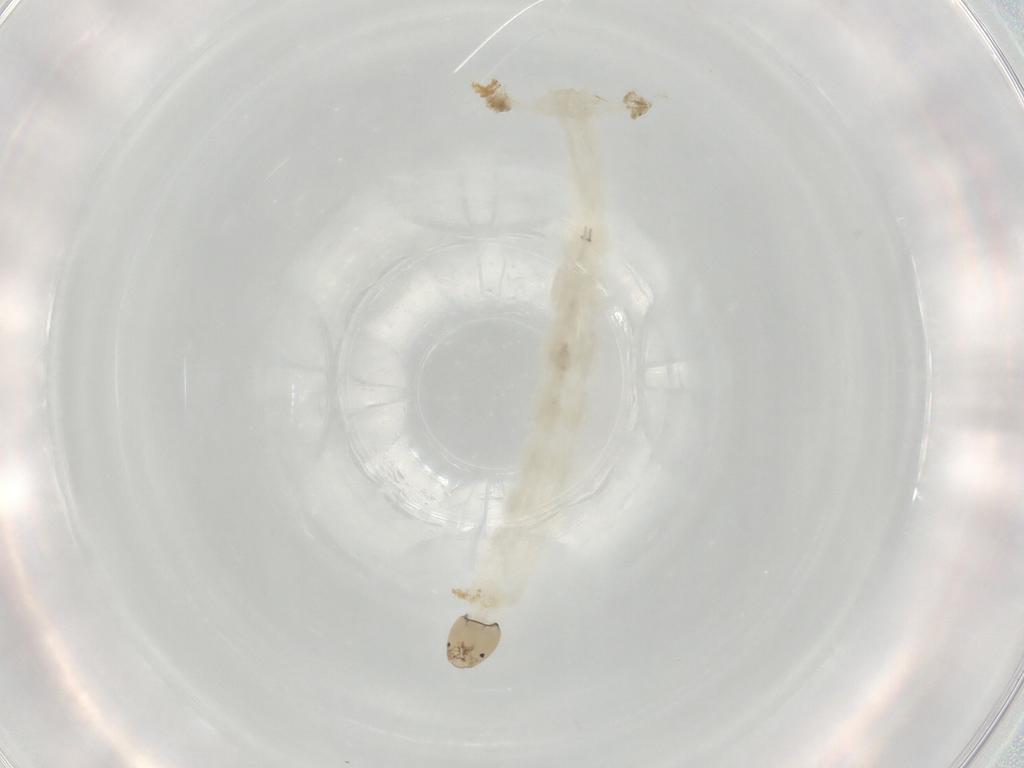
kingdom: Animalia
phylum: Arthropoda
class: Insecta
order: Diptera
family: Chironomidae
